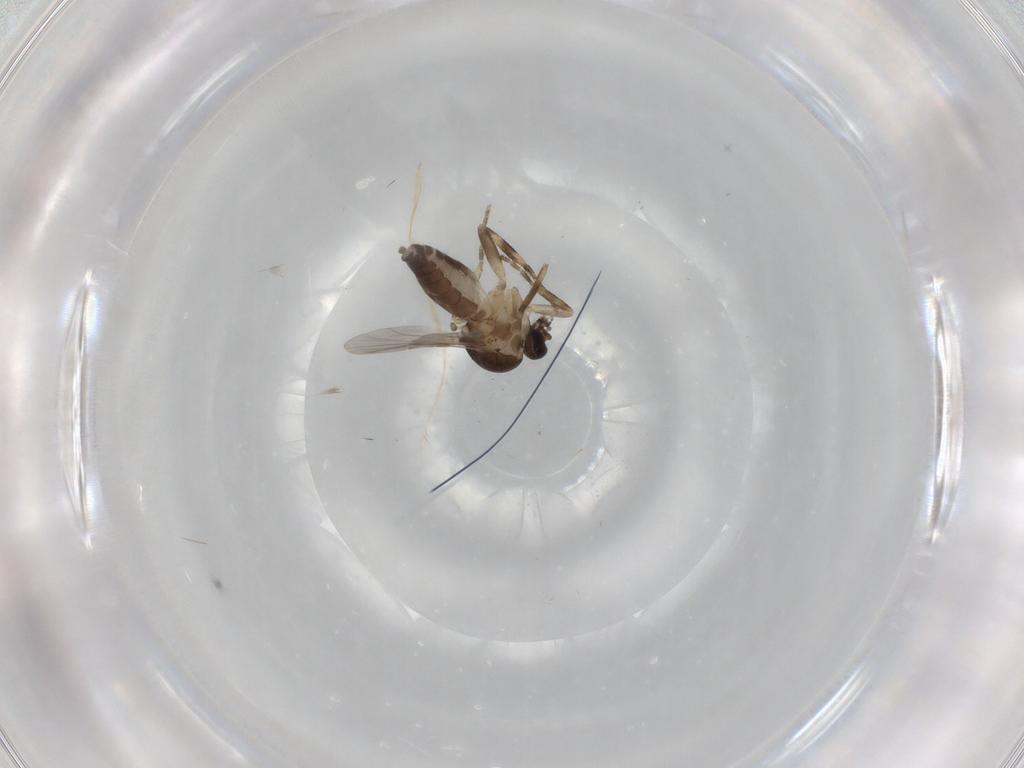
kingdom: Animalia
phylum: Arthropoda
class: Insecta
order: Diptera
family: Ceratopogonidae
